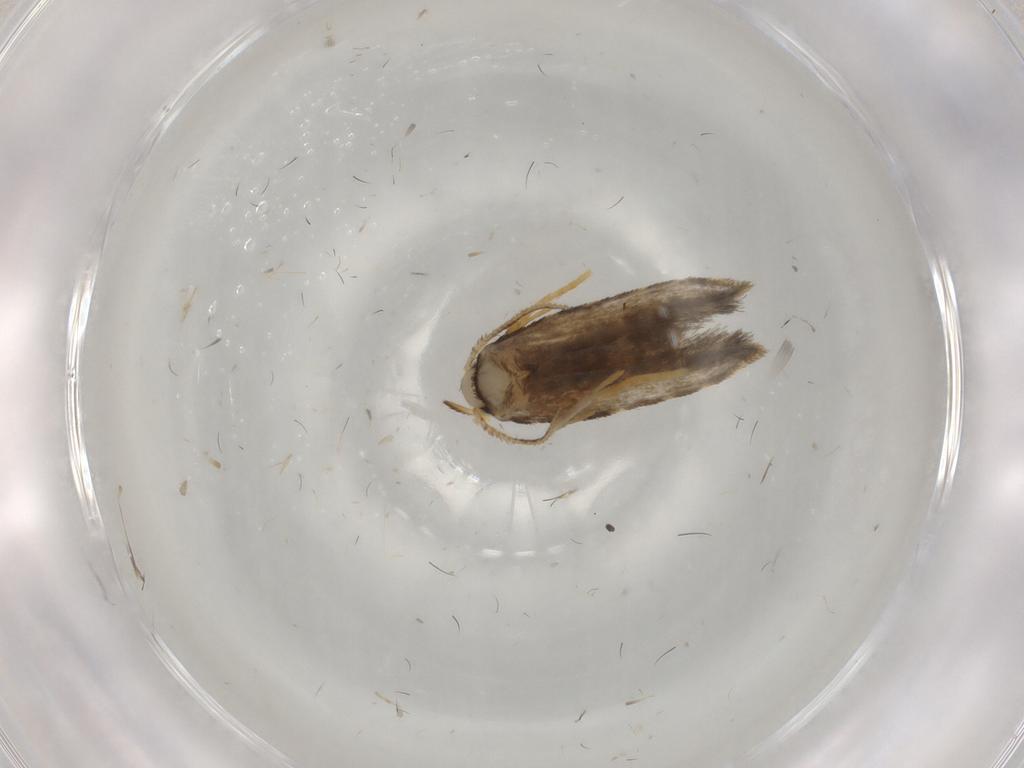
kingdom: Animalia
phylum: Arthropoda
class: Insecta
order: Lepidoptera
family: Psychidae
